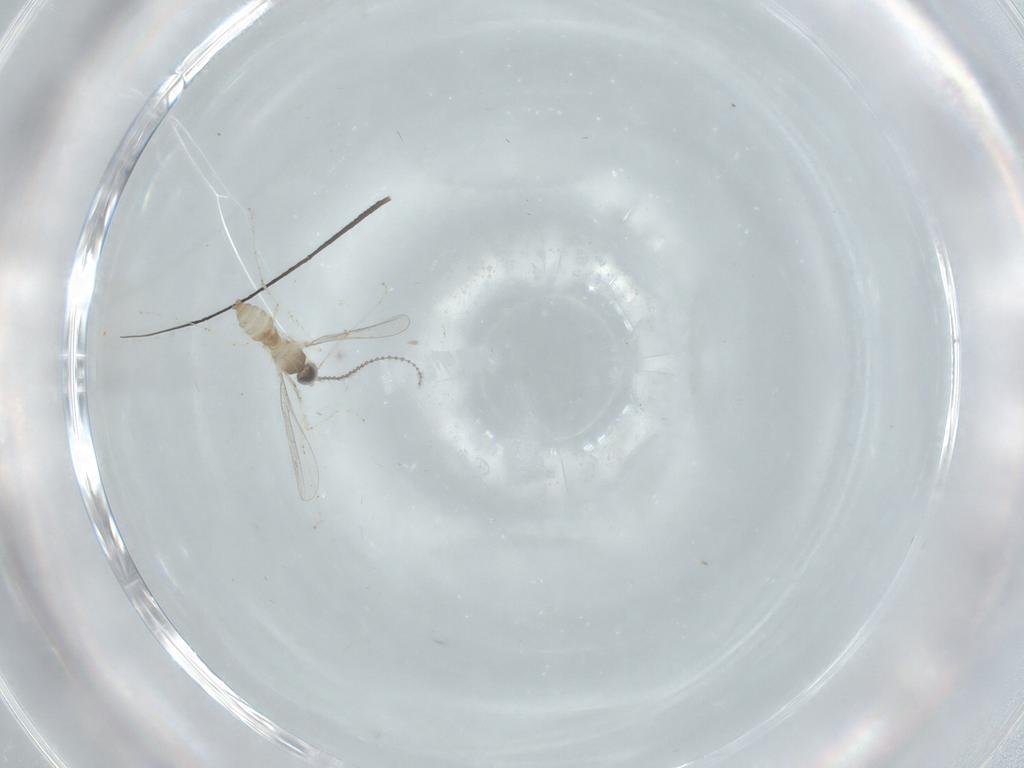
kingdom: Animalia
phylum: Arthropoda
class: Insecta
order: Diptera
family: Cecidomyiidae
